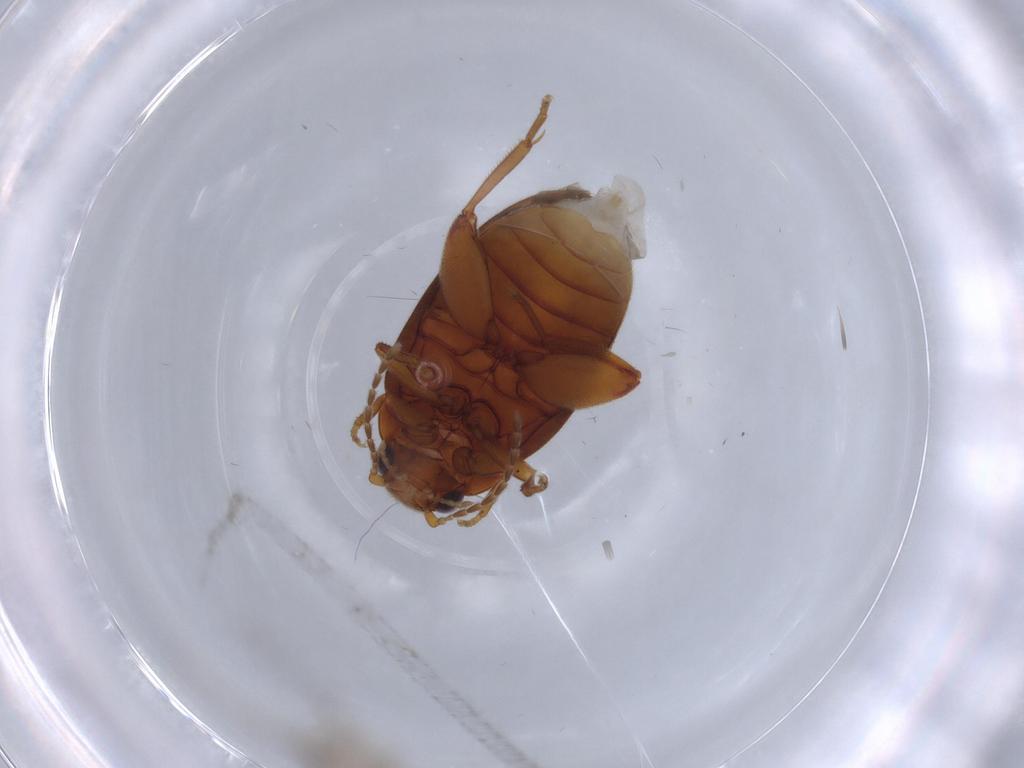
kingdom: Animalia
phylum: Arthropoda
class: Insecta
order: Coleoptera
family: Scirtidae
